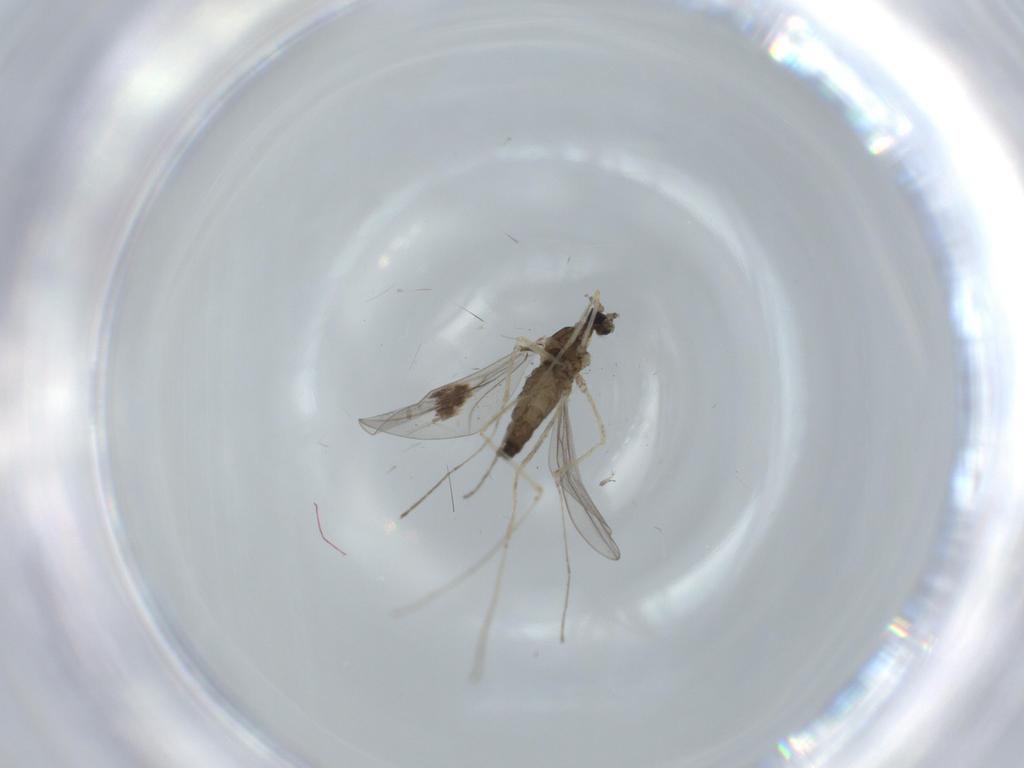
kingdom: Animalia
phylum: Arthropoda
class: Insecta
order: Diptera
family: Cecidomyiidae
